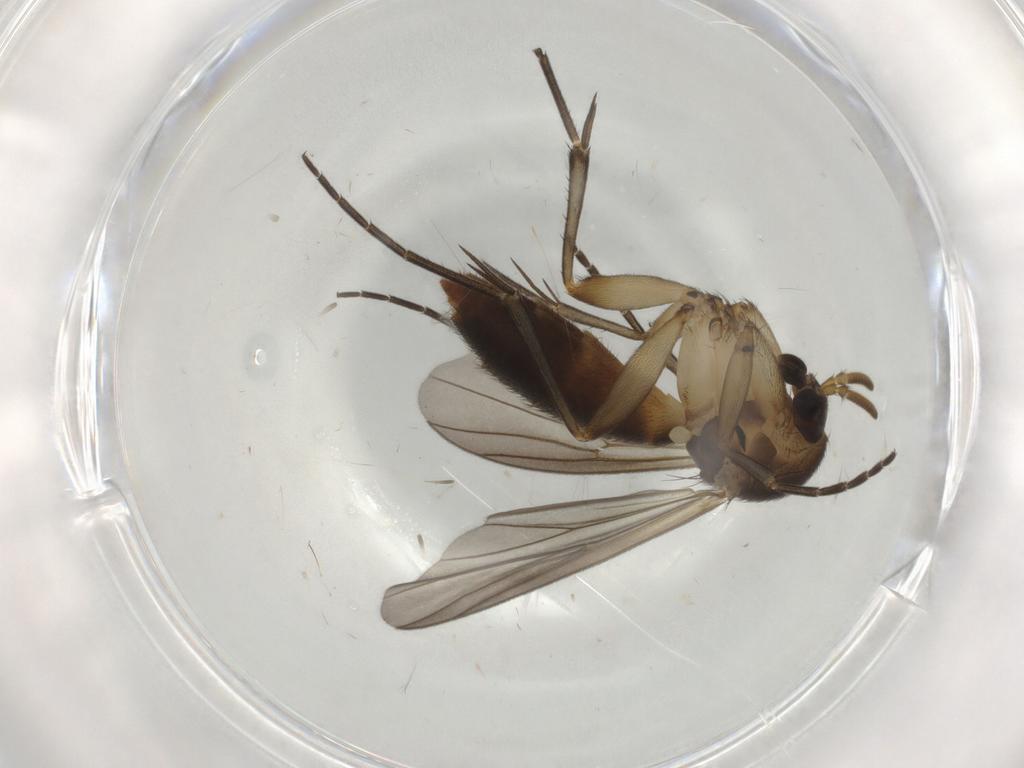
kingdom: Animalia
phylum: Arthropoda
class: Insecta
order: Diptera
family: Mycetophilidae
